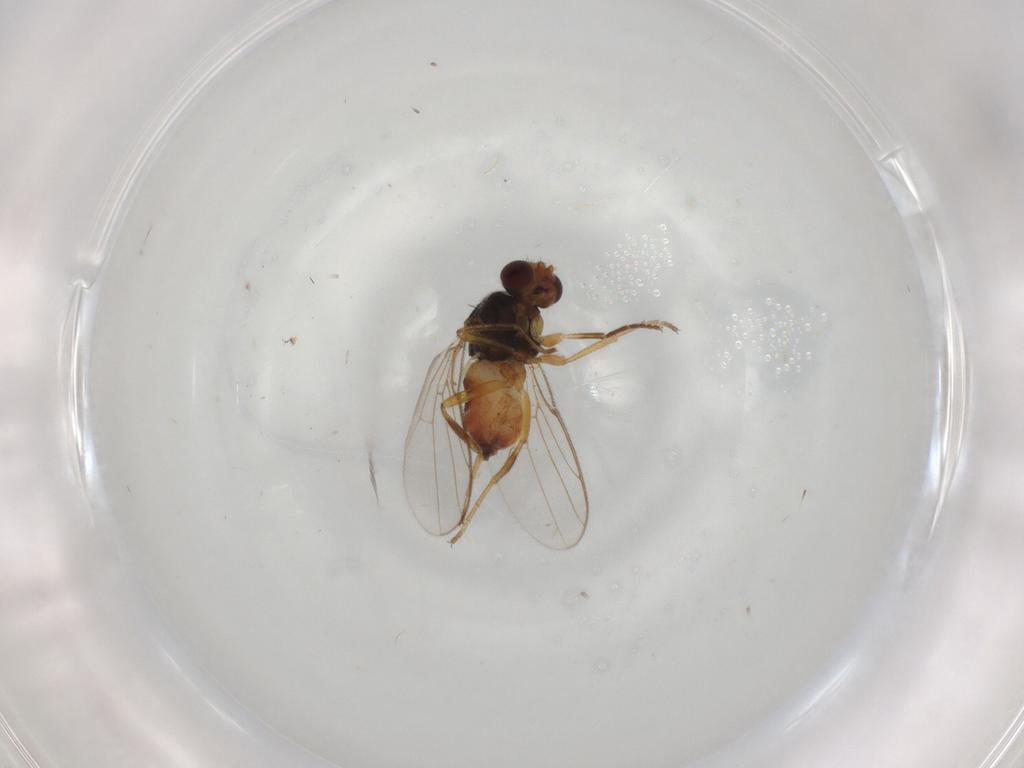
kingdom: Animalia
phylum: Arthropoda
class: Insecta
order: Diptera
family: Chloropidae
